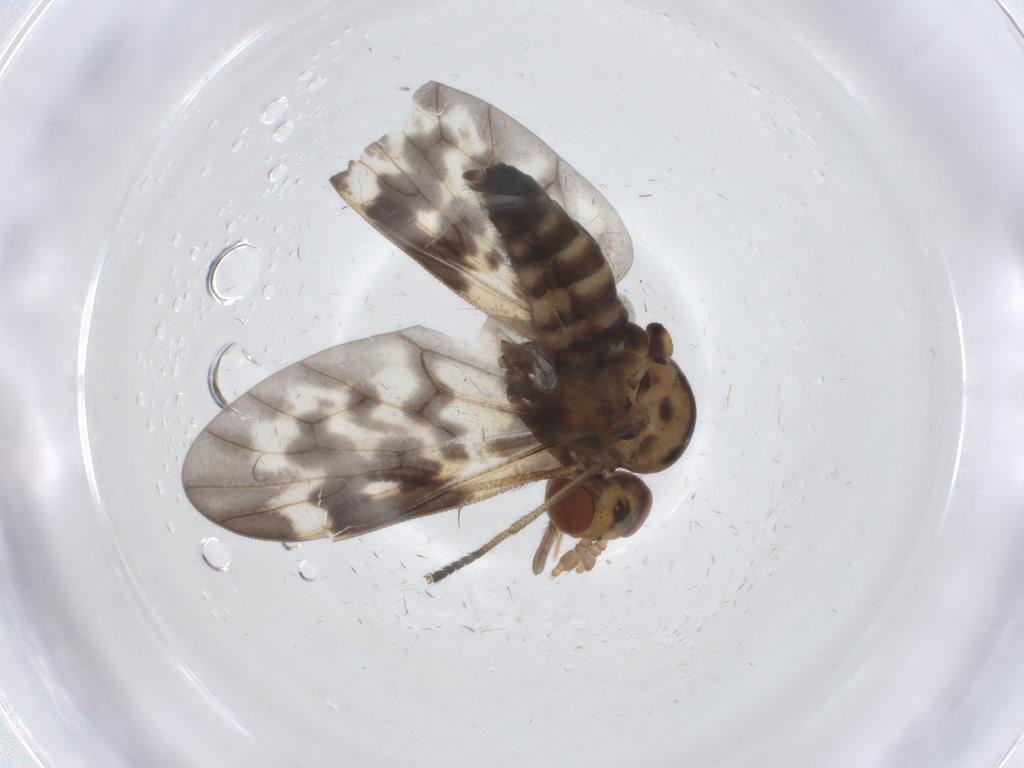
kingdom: Animalia
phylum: Arthropoda
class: Insecta
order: Diptera
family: Austroleptidae
